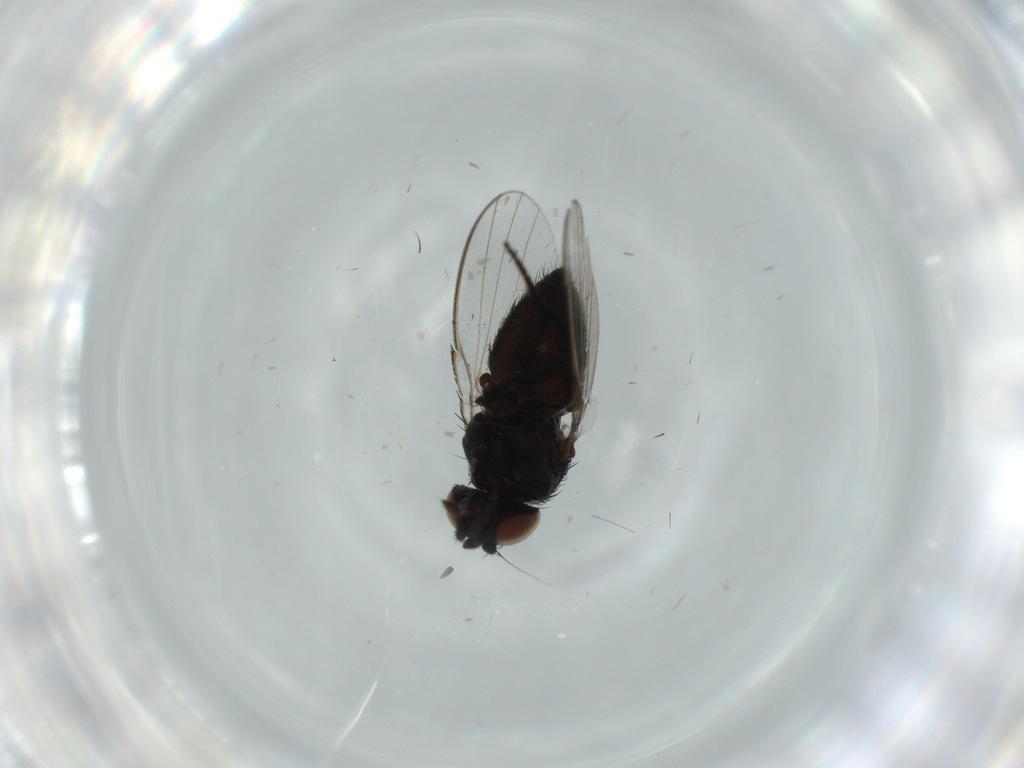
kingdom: Animalia
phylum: Arthropoda
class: Insecta
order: Diptera
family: Milichiidae
